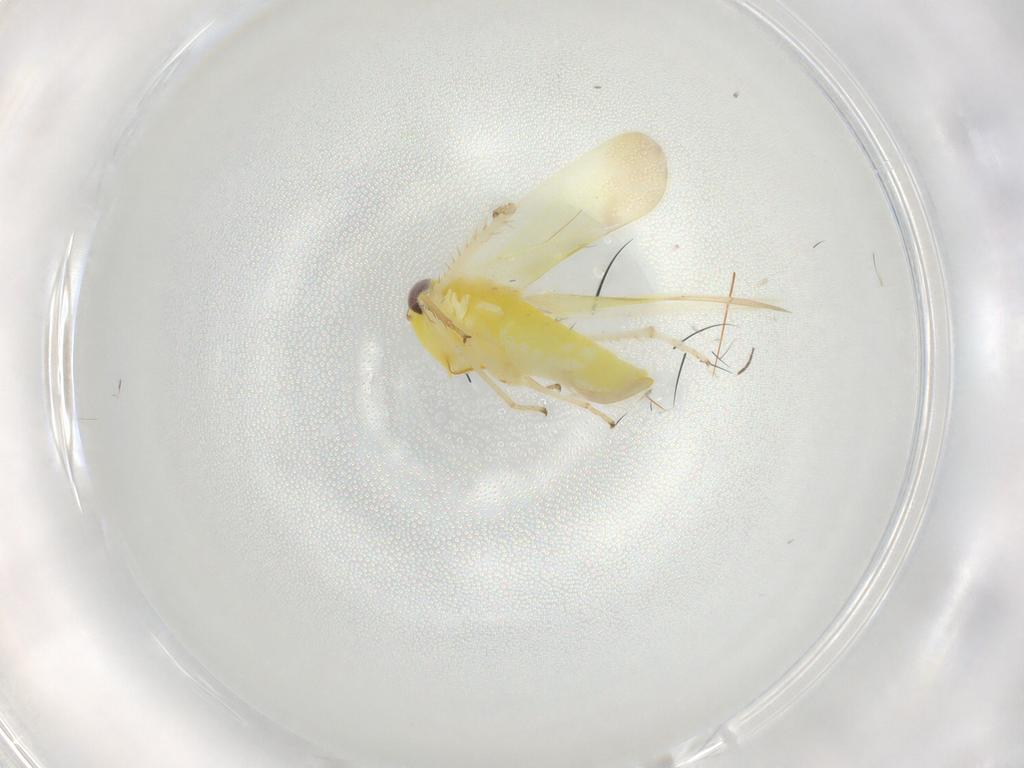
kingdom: Animalia
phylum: Arthropoda
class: Insecta
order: Hemiptera
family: Cicadellidae
